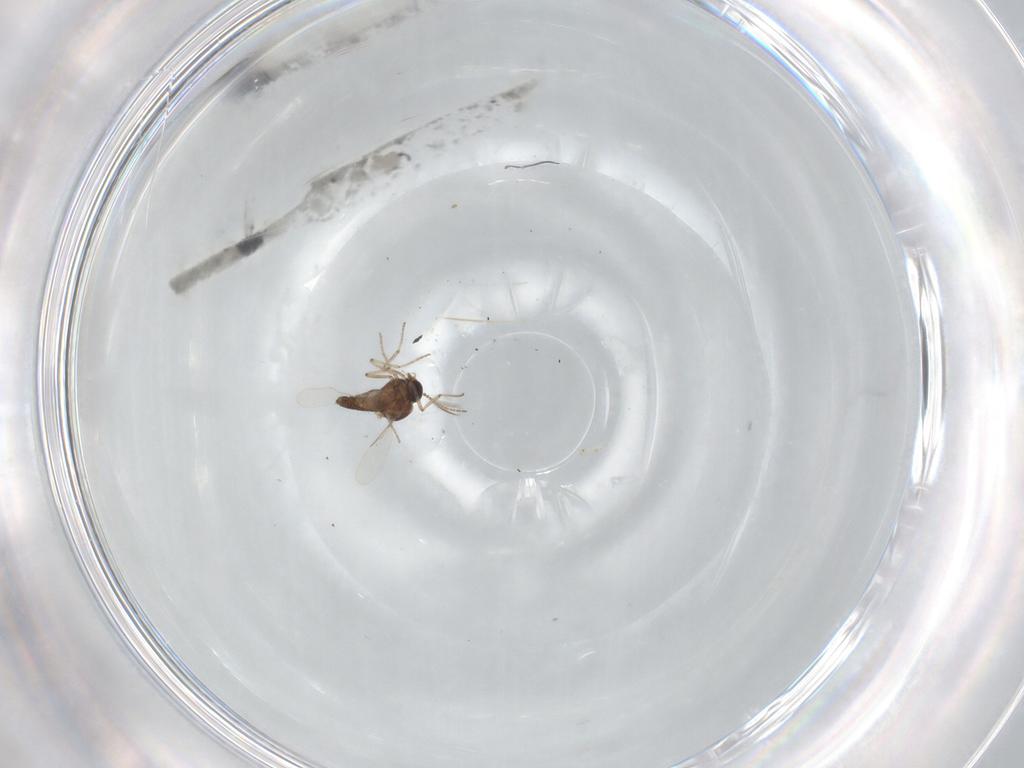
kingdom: Animalia
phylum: Arthropoda
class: Insecta
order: Diptera
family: Ceratopogonidae
